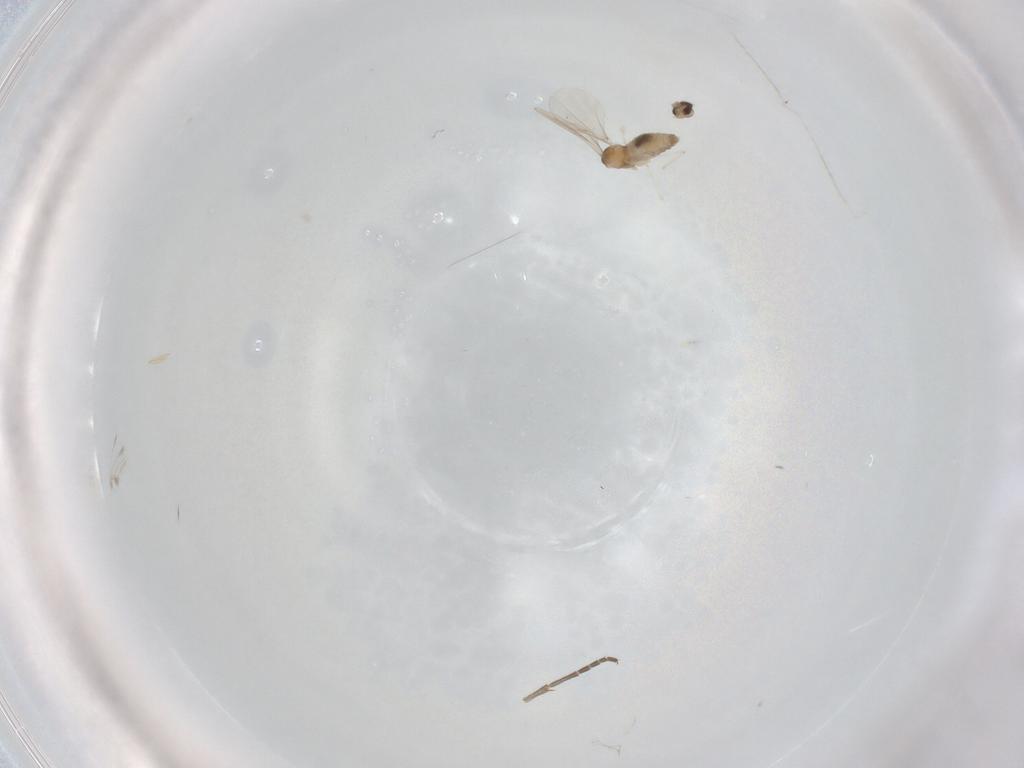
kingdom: Animalia
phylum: Arthropoda
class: Insecta
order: Diptera
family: Cecidomyiidae
